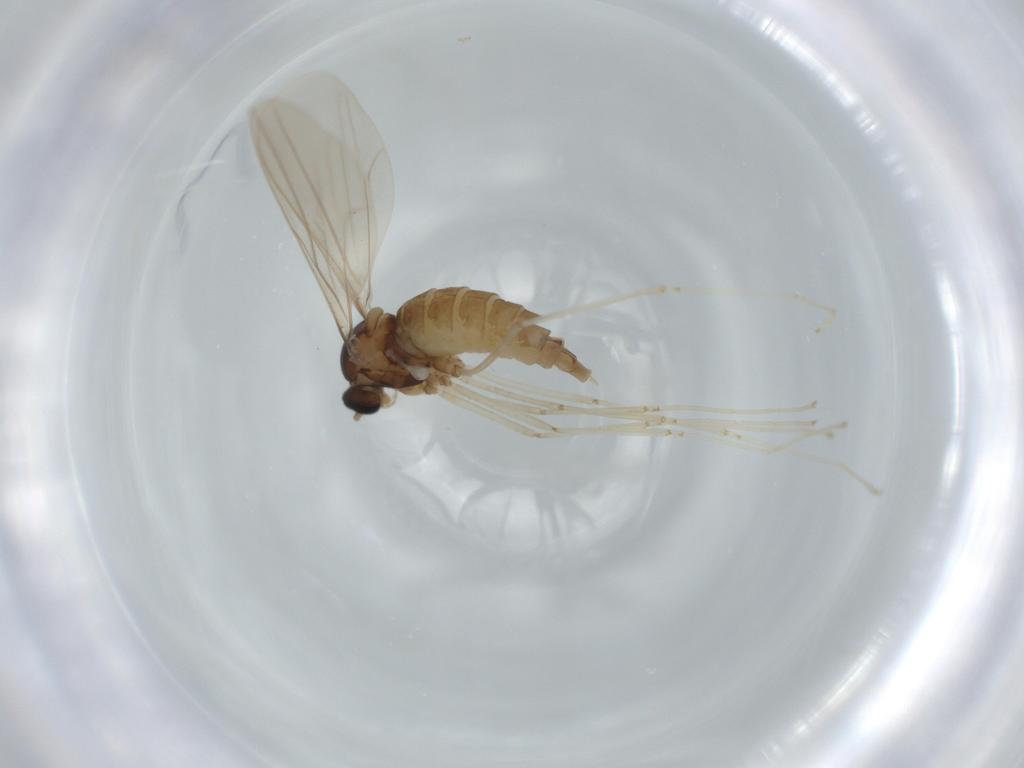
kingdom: Animalia
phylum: Arthropoda
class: Insecta
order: Diptera
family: Cecidomyiidae
